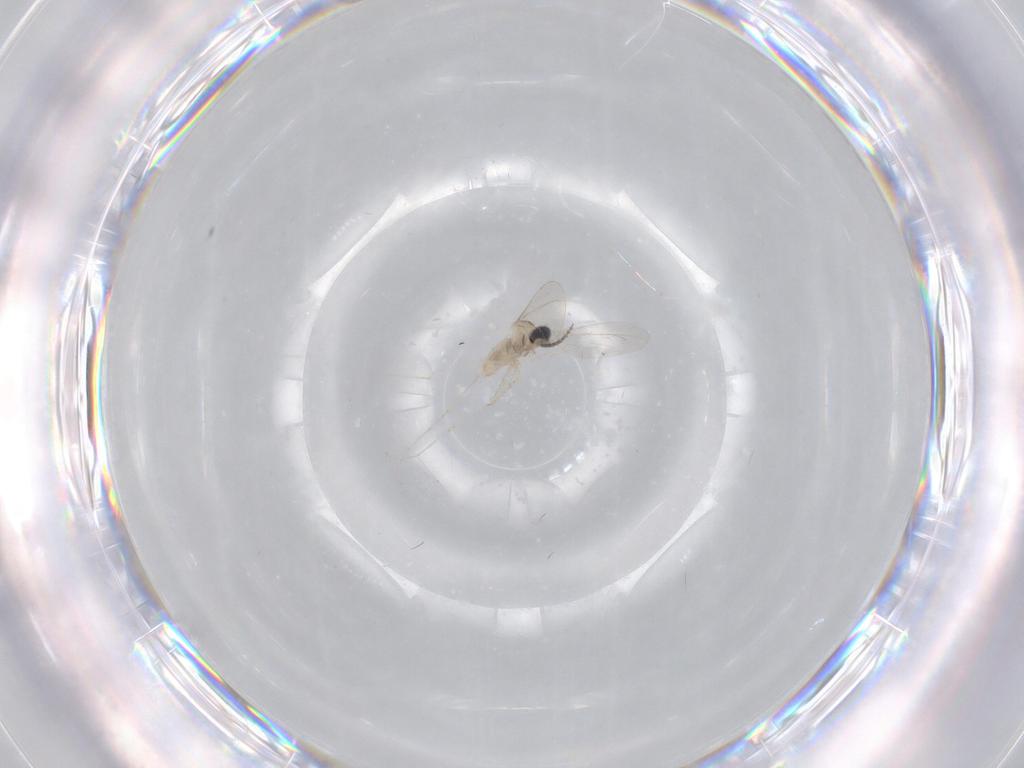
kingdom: Animalia
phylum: Arthropoda
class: Insecta
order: Diptera
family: Cecidomyiidae
